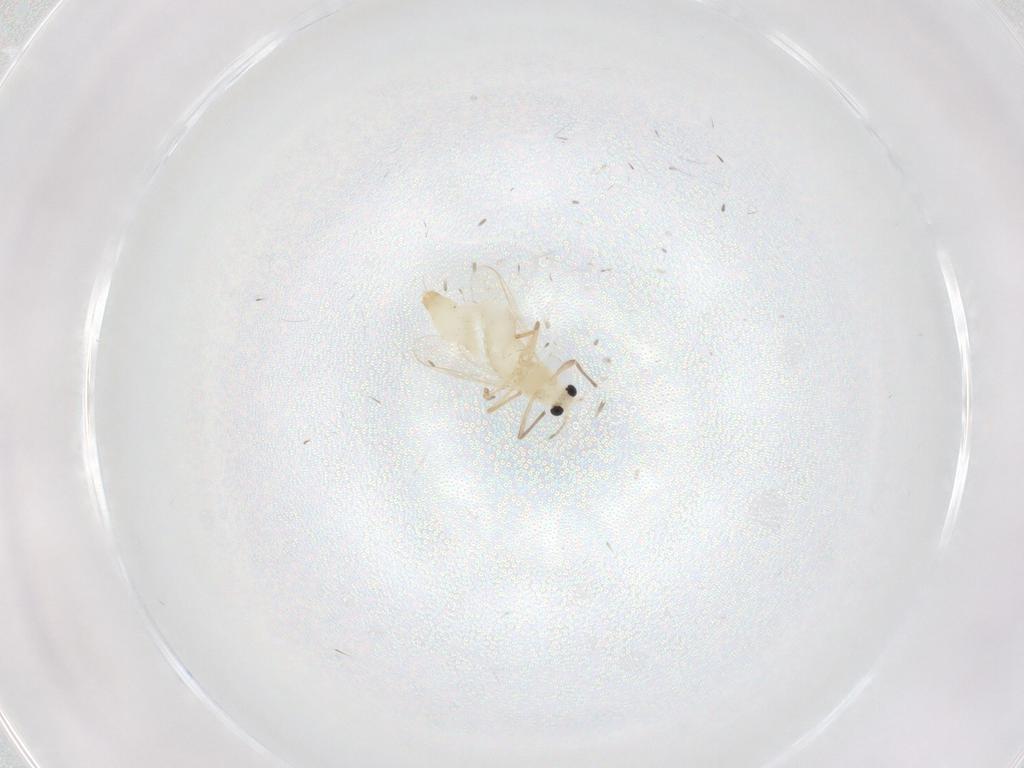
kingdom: Animalia
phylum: Arthropoda
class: Insecta
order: Diptera
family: Chironomidae
